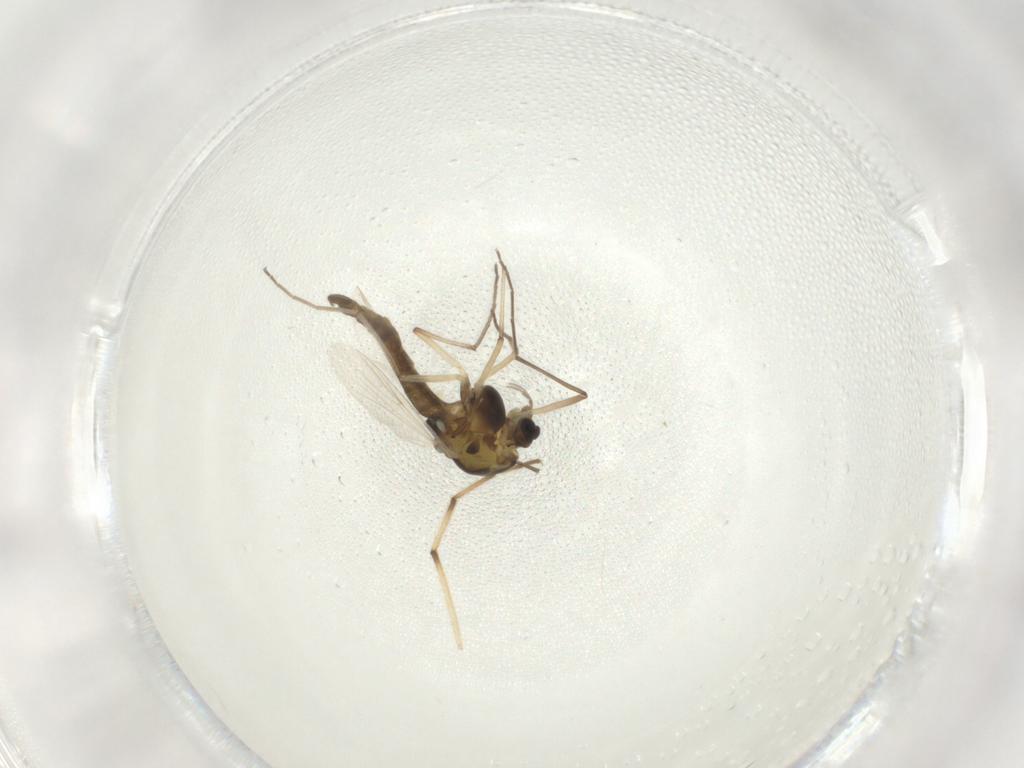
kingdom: Animalia
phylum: Arthropoda
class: Insecta
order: Diptera
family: Chironomidae
